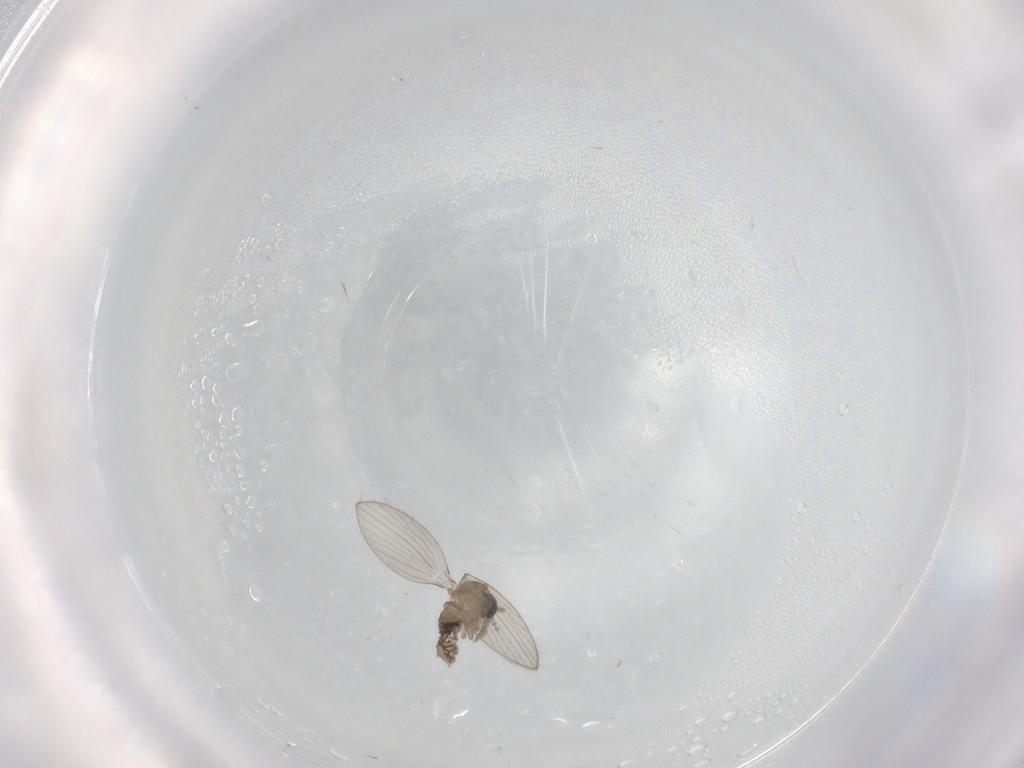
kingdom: Animalia
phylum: Arthropoda
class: Insecta
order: Diptera
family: Psychodidae
